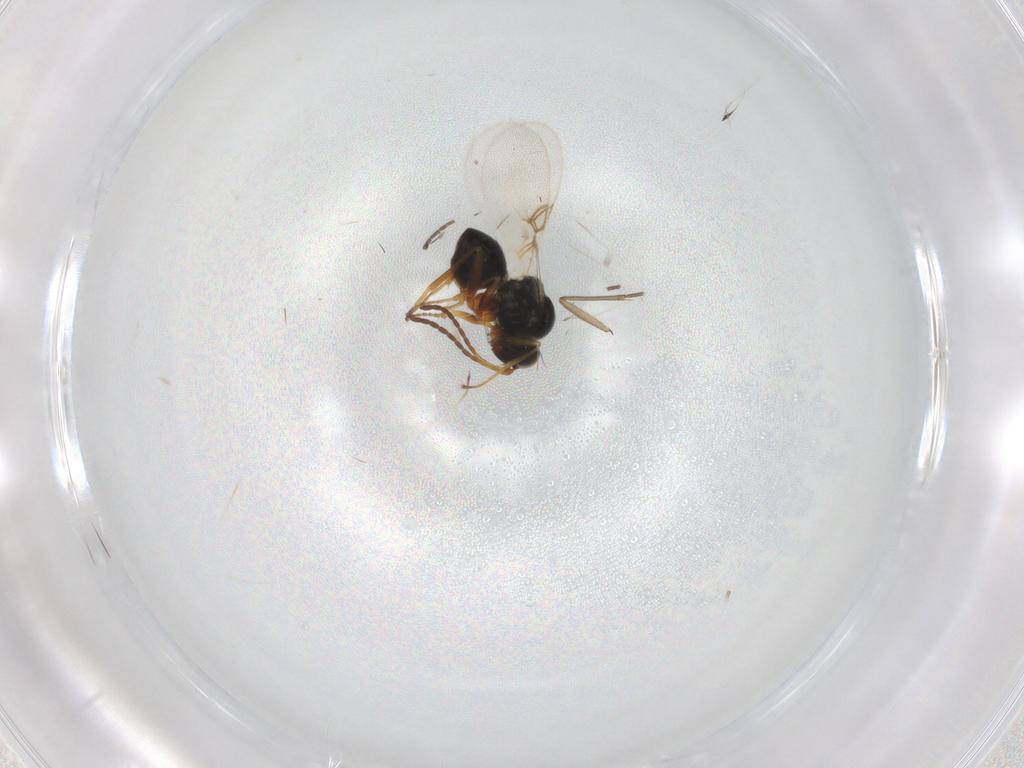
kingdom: Animalia
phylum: Arthropoda
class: Insecta
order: Hymenoptera
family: Figitidae
